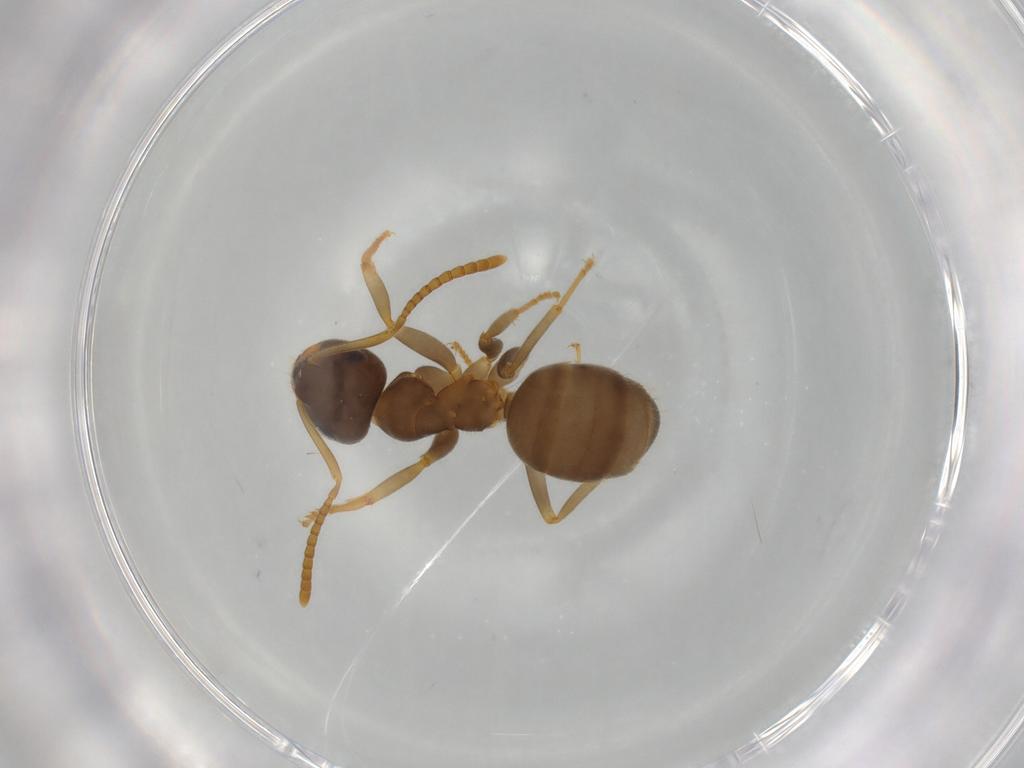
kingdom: Animalia
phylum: Arthropoda
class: Insecta
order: Hymenoptera
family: Formicidae
